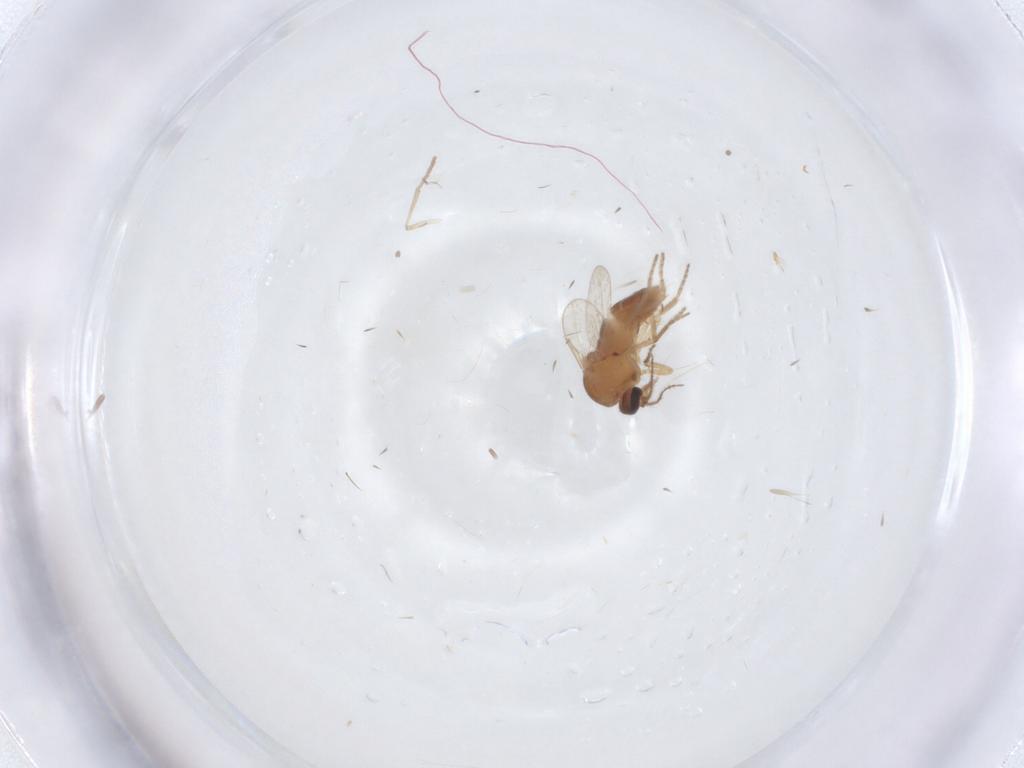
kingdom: Animalia
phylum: Arthropoda
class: Insecta
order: Diptera
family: Ceratopogonidae
